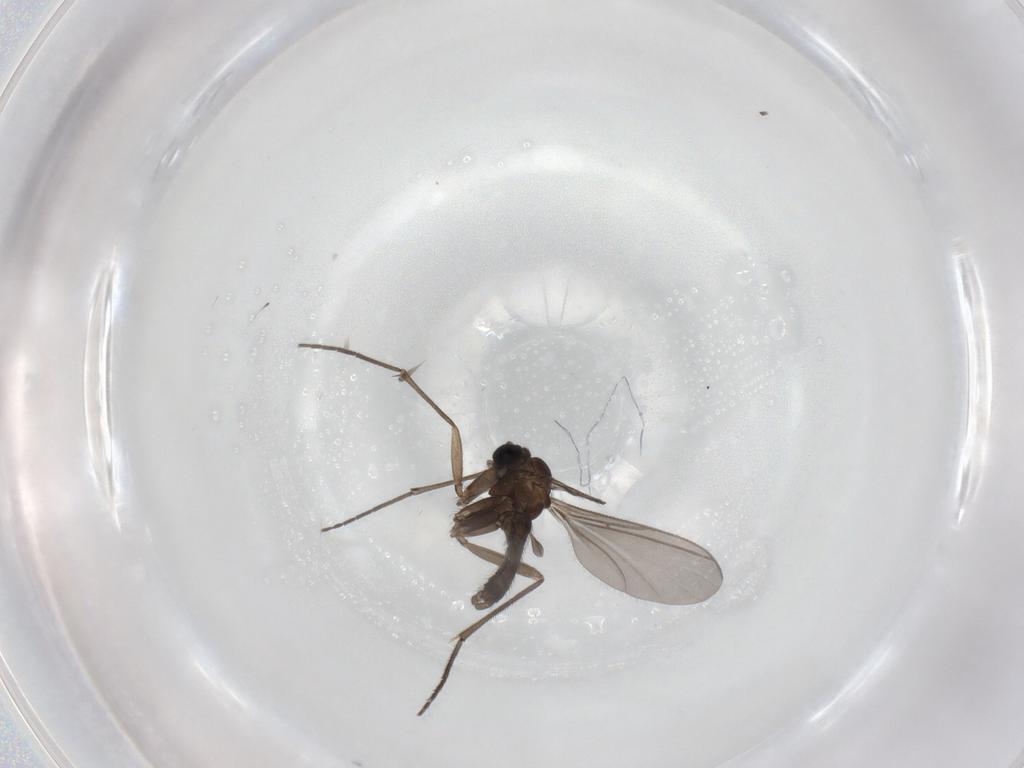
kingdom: Animalia
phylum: Arthropoda
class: Insecta
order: Diptera
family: Sciaridae
